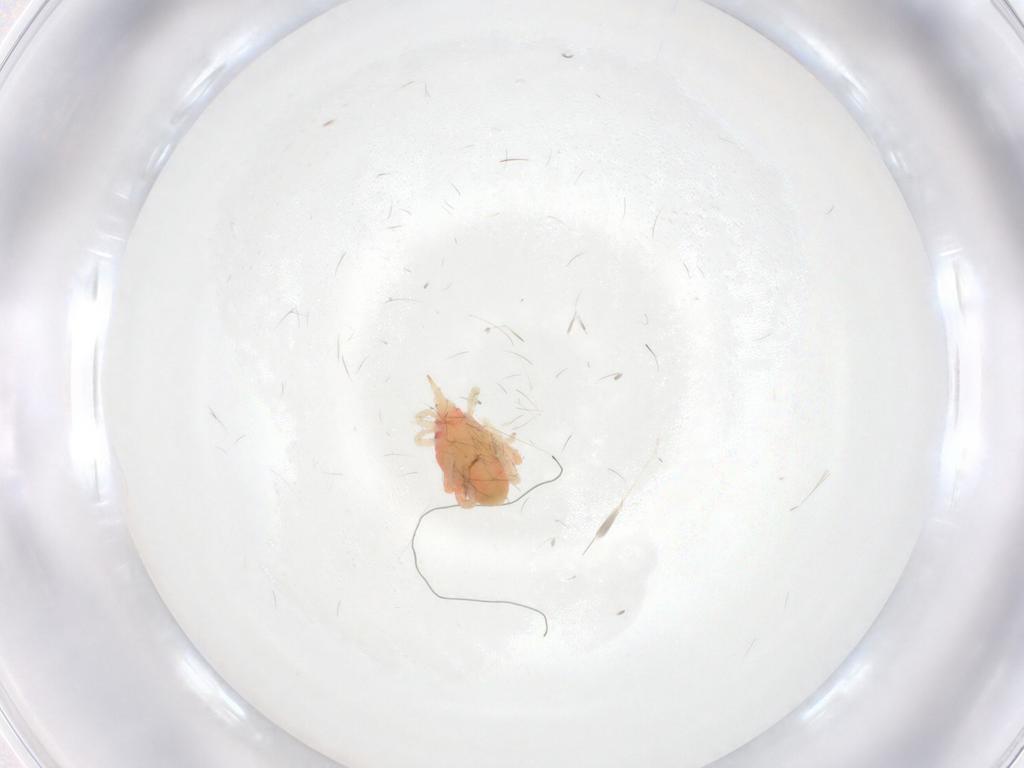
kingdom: Animalia
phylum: Arthropoda
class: Arachnida
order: Trombidiformes
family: Bdellidae
